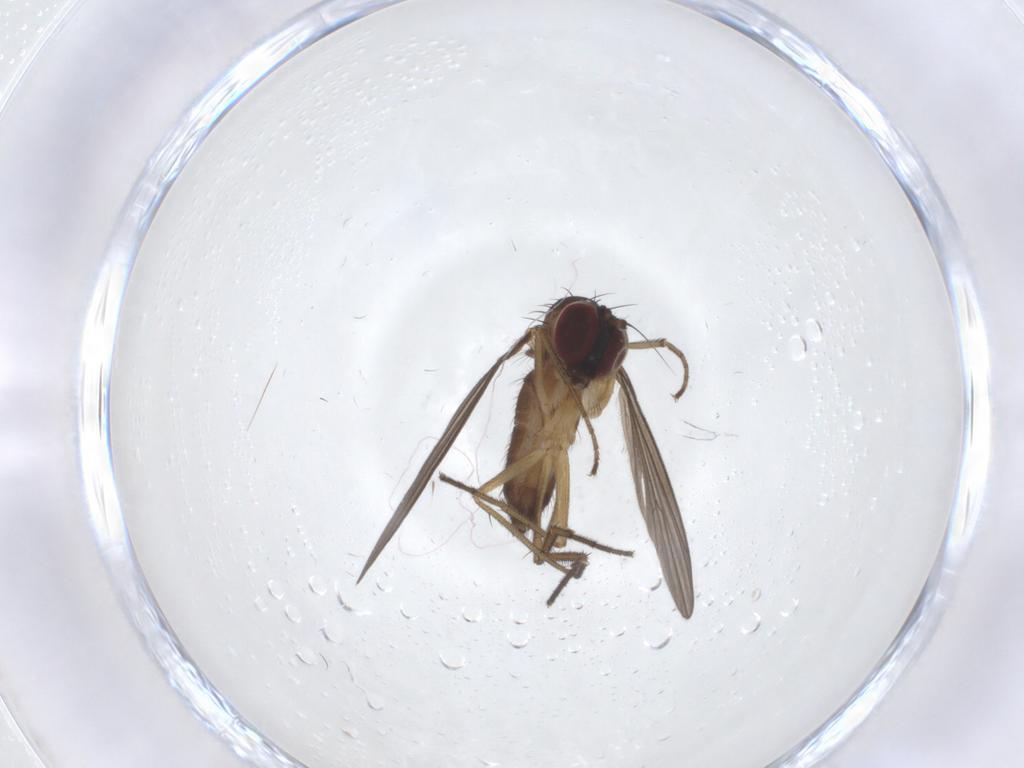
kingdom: Animalia
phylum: Arthropoda
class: Insecta
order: Diptera
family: Dolichopodidae
